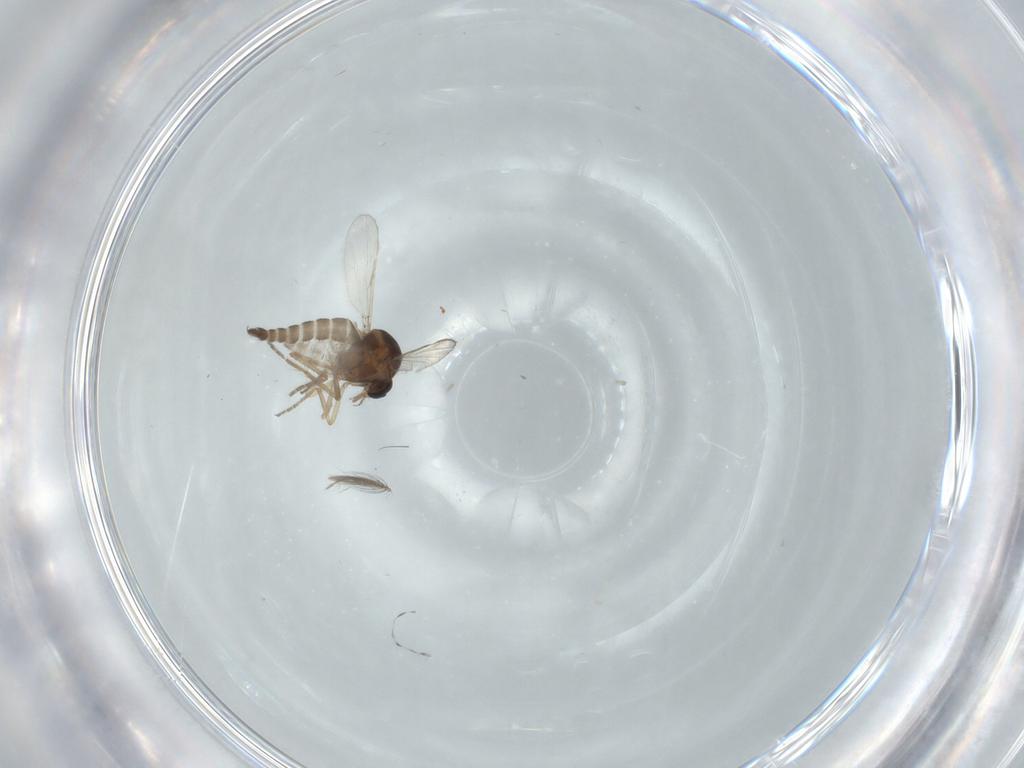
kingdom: Animalia
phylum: Arthropoda
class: Insecta
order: Diptera
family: Ceratopogonidae
